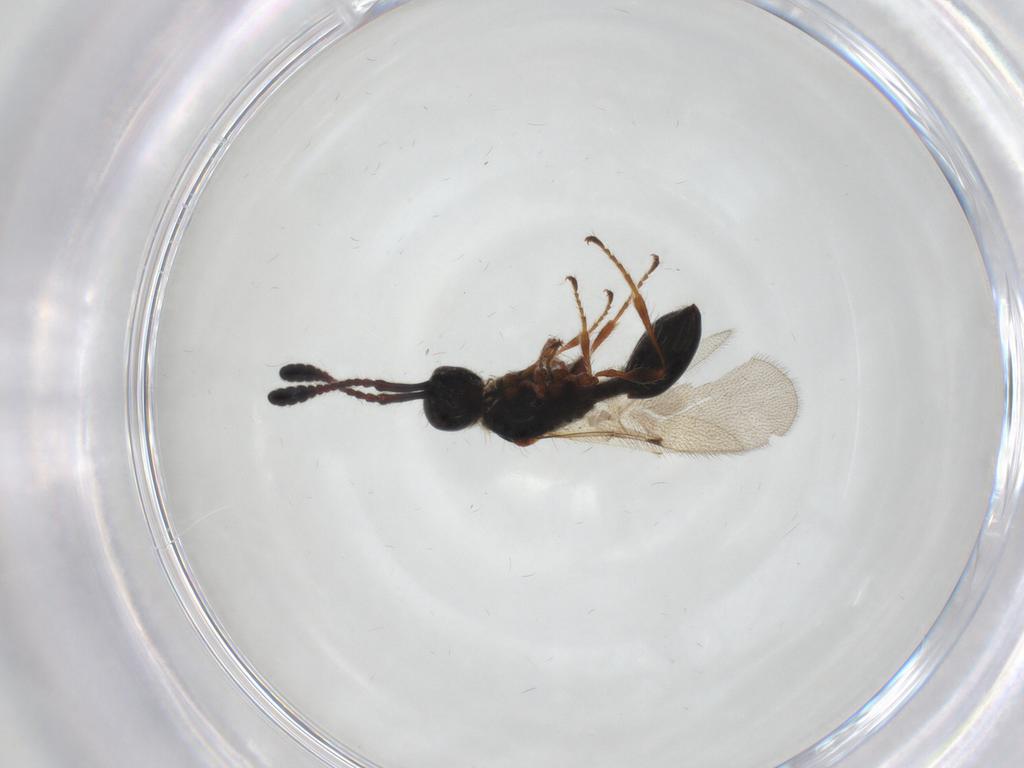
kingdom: Animalia
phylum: Arthropoda
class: Insecta
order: Hymenoptera
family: Diapriidae
